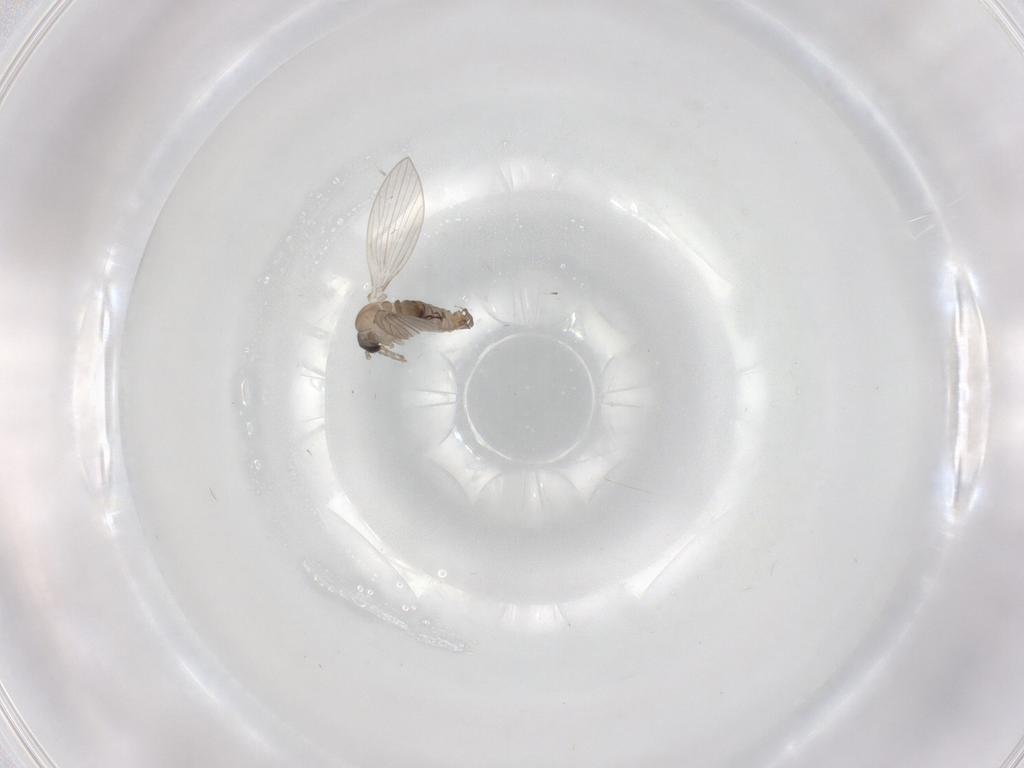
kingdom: Animalia
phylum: Arthropoda
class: Insecta
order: Diptera
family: Psychodidae
